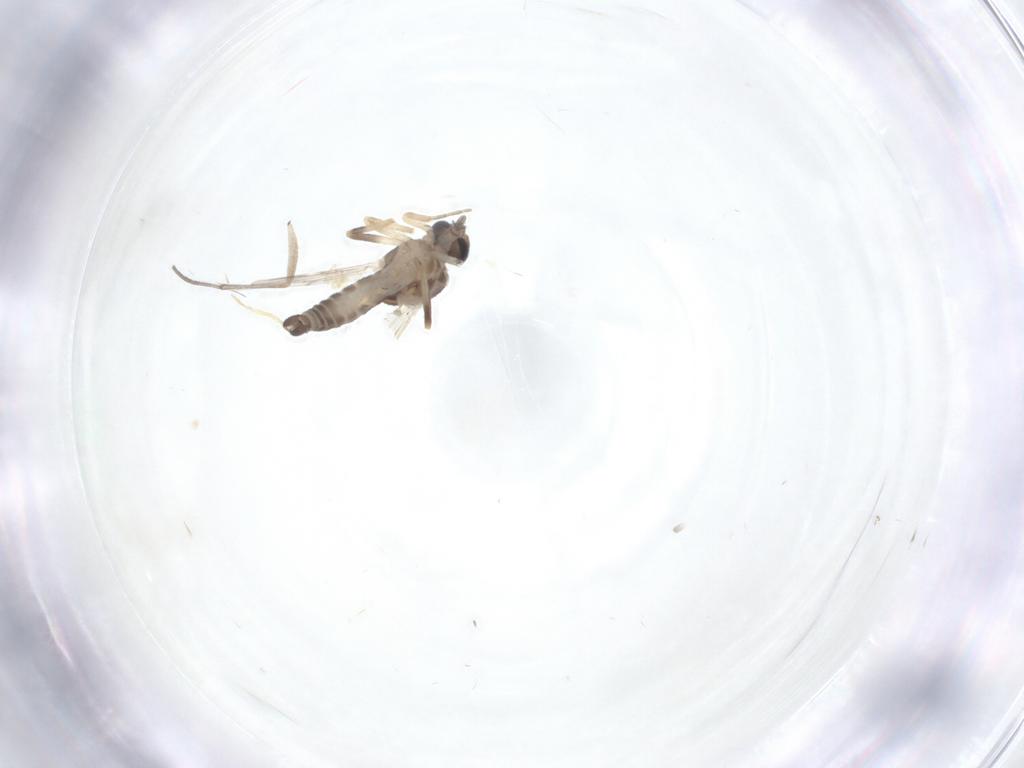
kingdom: Animalia
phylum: Arthropoda
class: Insecta
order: Diptera
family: Ceratopogonidae
